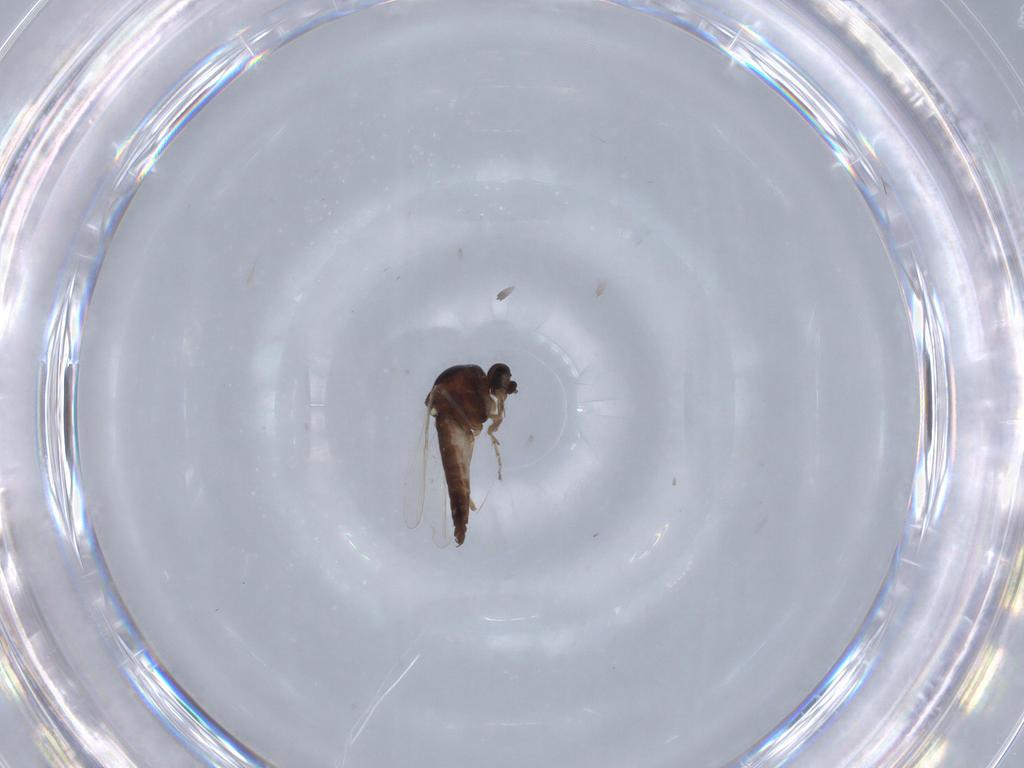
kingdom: Animalia
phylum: Arthropoda
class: Insecta
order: Diptera
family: Ceratopogonidae
